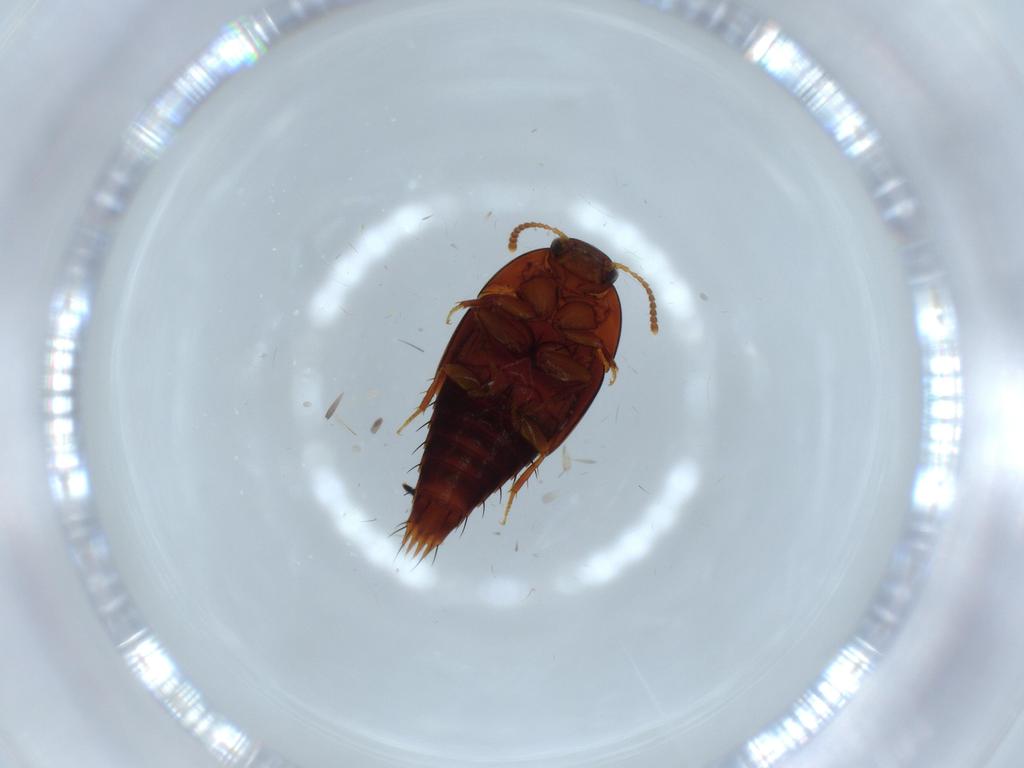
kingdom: Animalia
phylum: Arthropoda
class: Insecta
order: Coleoptera
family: Staphylinidae
